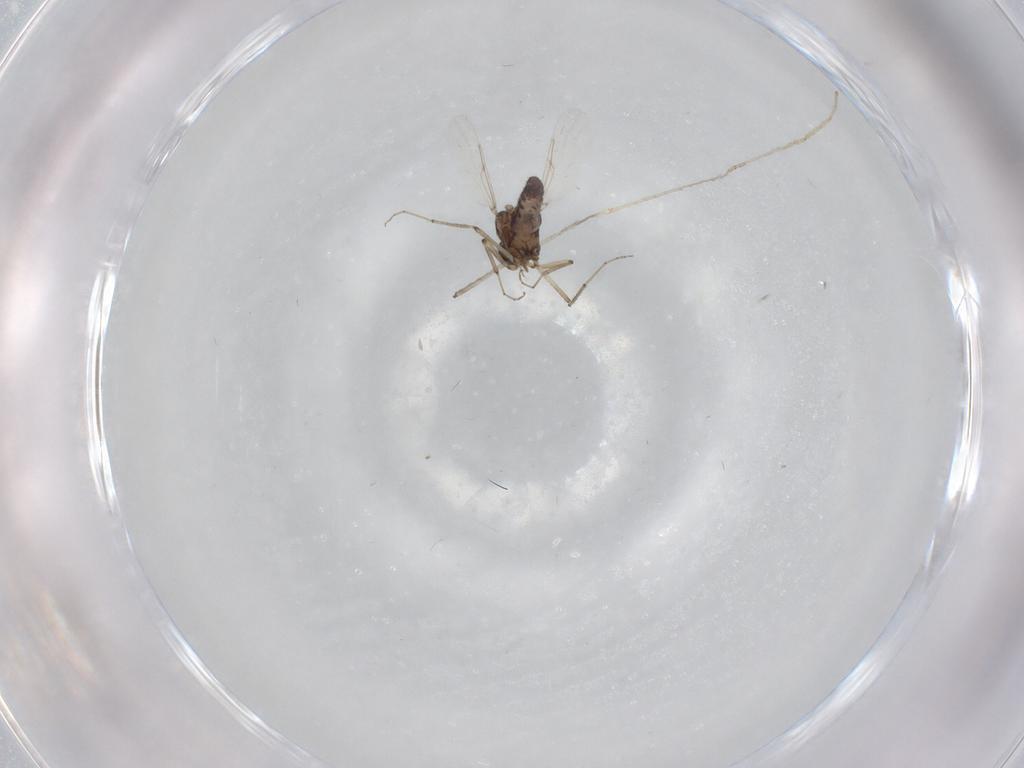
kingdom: Animalia
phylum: Arthropoda
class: Insecta
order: Diptera
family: Ceratopogonidae
